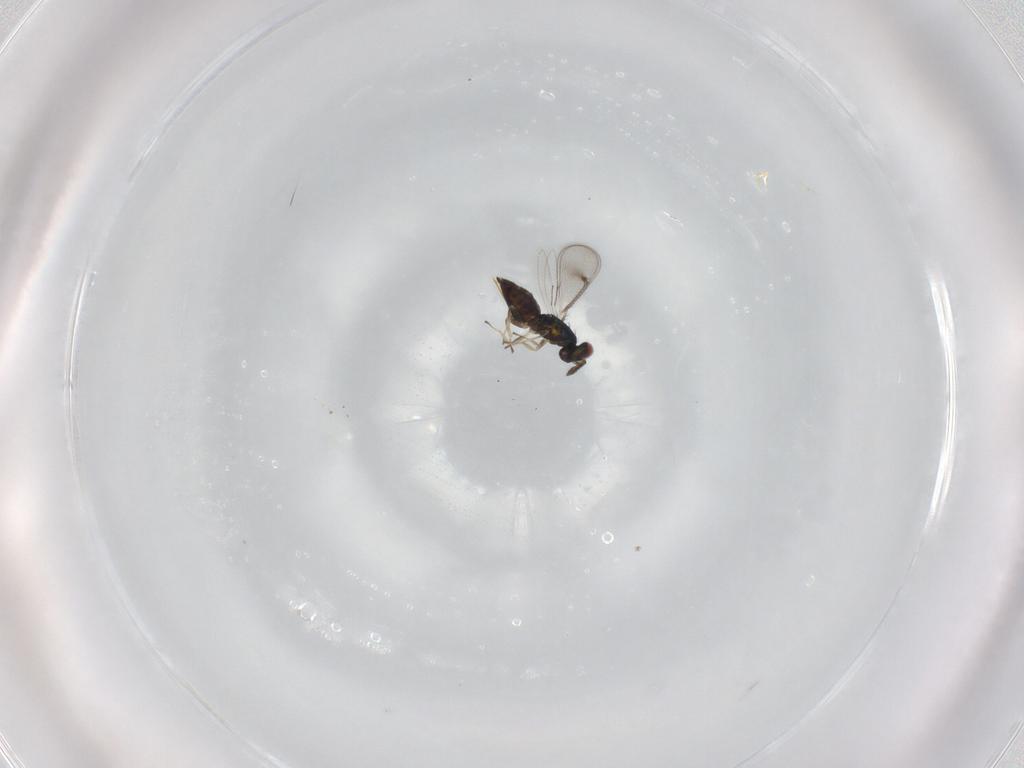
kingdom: Animalia
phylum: Arthropoda
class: Insecta
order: Hymenoptera
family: Eulophidae
